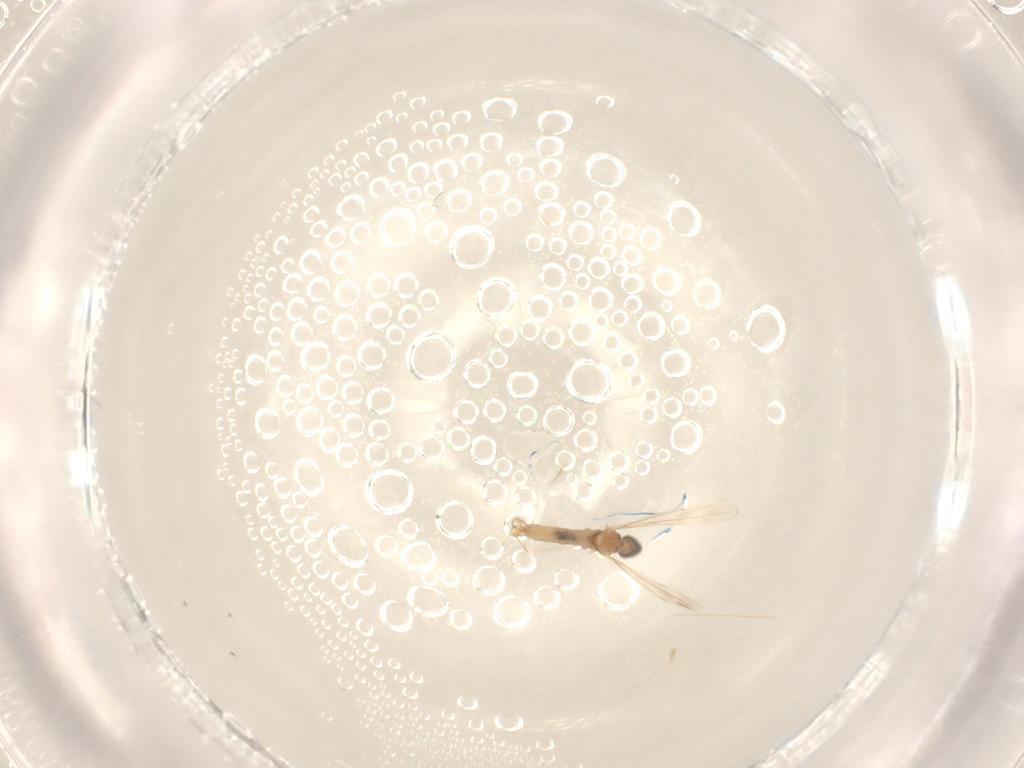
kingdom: Animalia
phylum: Arthropoda
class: Insecta
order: Diptera
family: Cecidomyiidae
